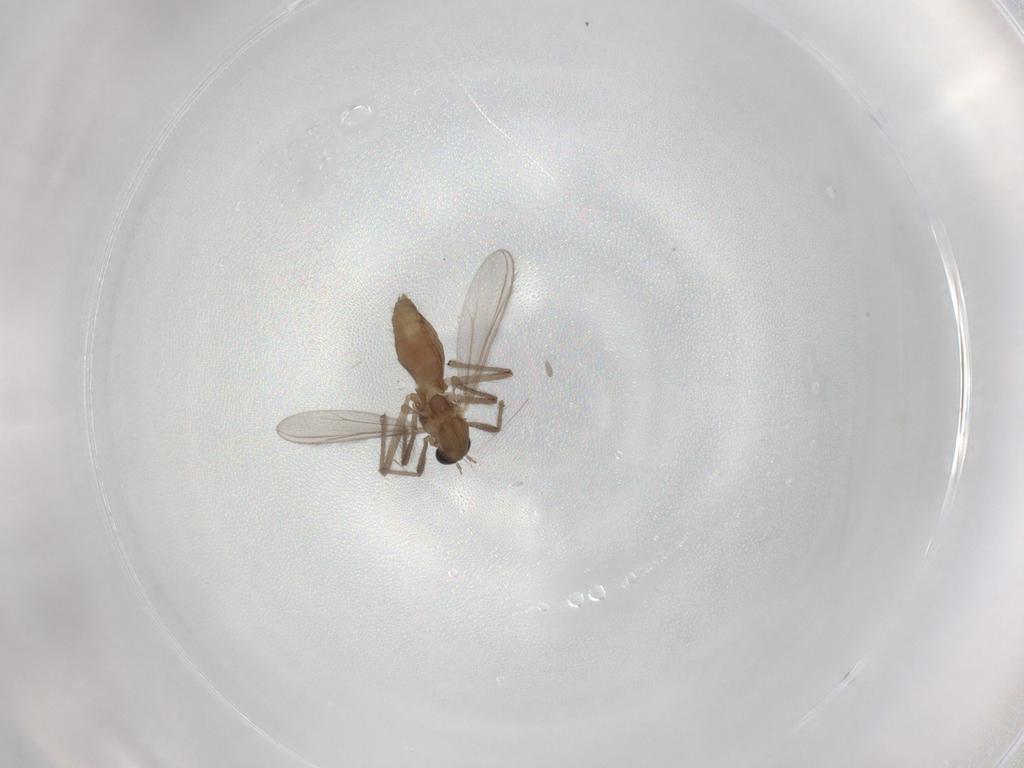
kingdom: Animalia
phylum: Arthropoda
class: Insecta
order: Diptera
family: Chironomidae
